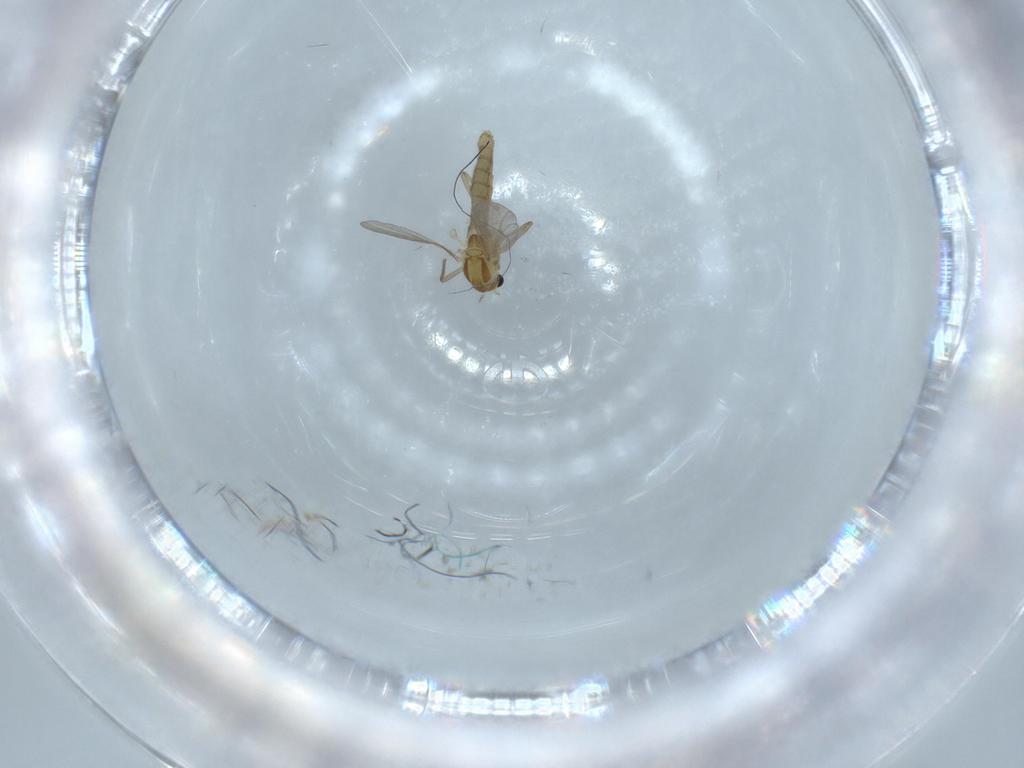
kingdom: Animalia
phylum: Arthropoda
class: Insecta
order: Diptera
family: Chironomidae
